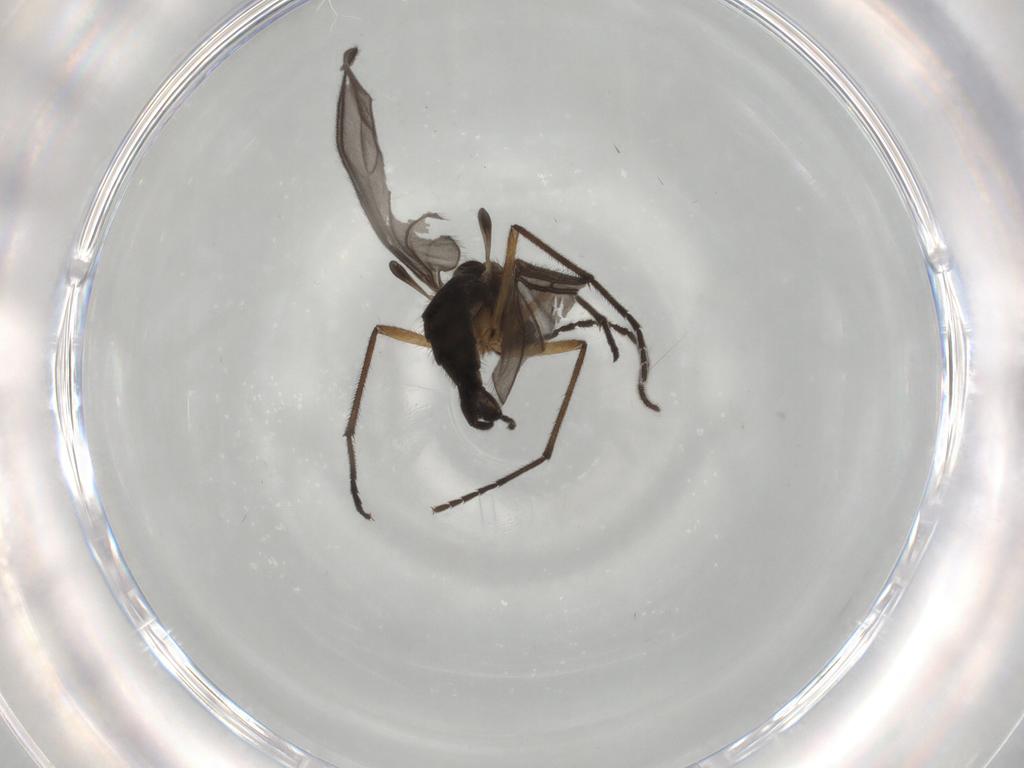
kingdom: Animalia
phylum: Arthropoda
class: Insecta
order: Diptera
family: Sciaridae
